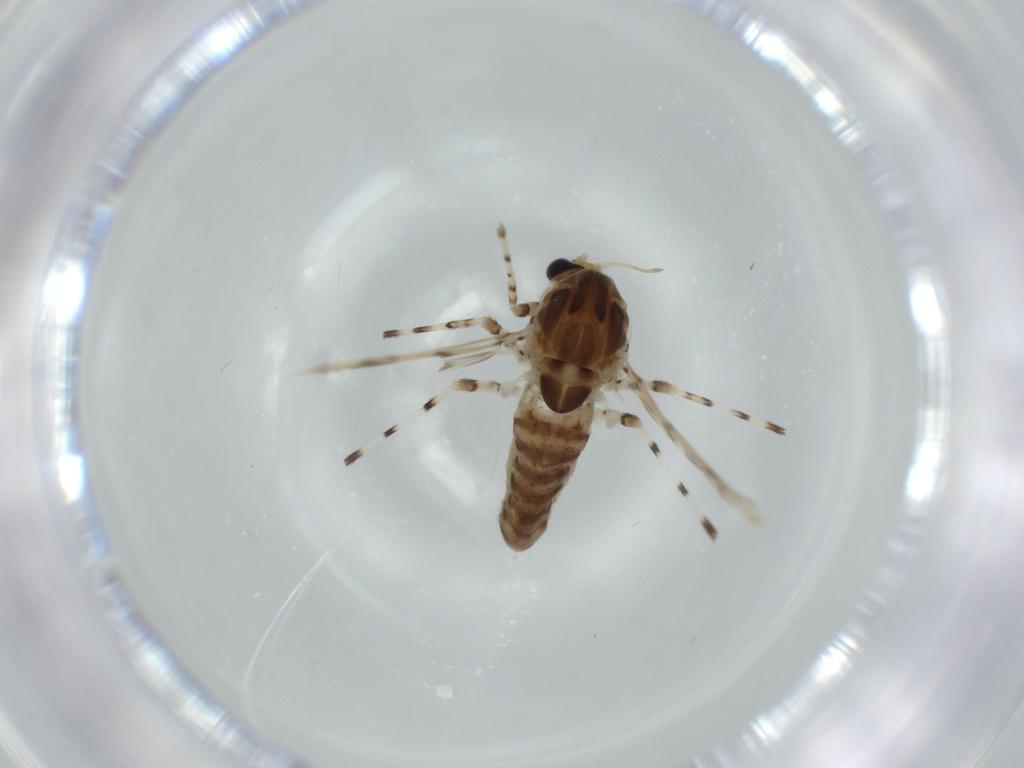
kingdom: Animalia
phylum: Arthropoda
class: Insecta
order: Diptera
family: Chironomidae
